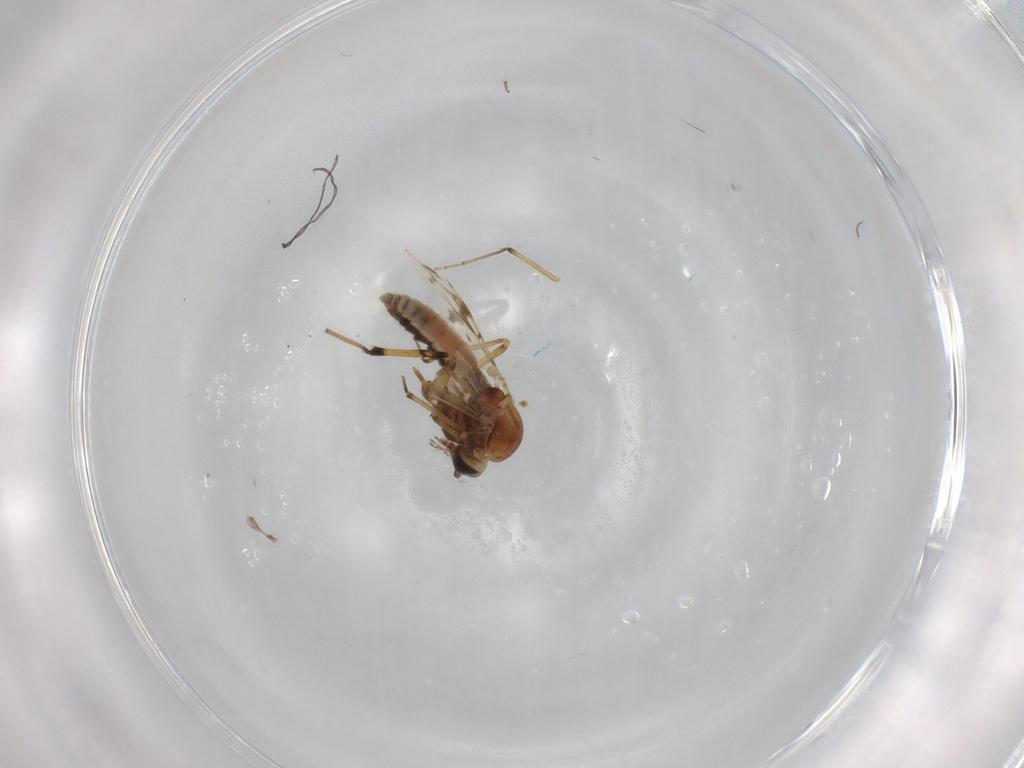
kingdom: Animalia
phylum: Arthropoda
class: Insecta
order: Diptera
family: Ceratopogonidae
